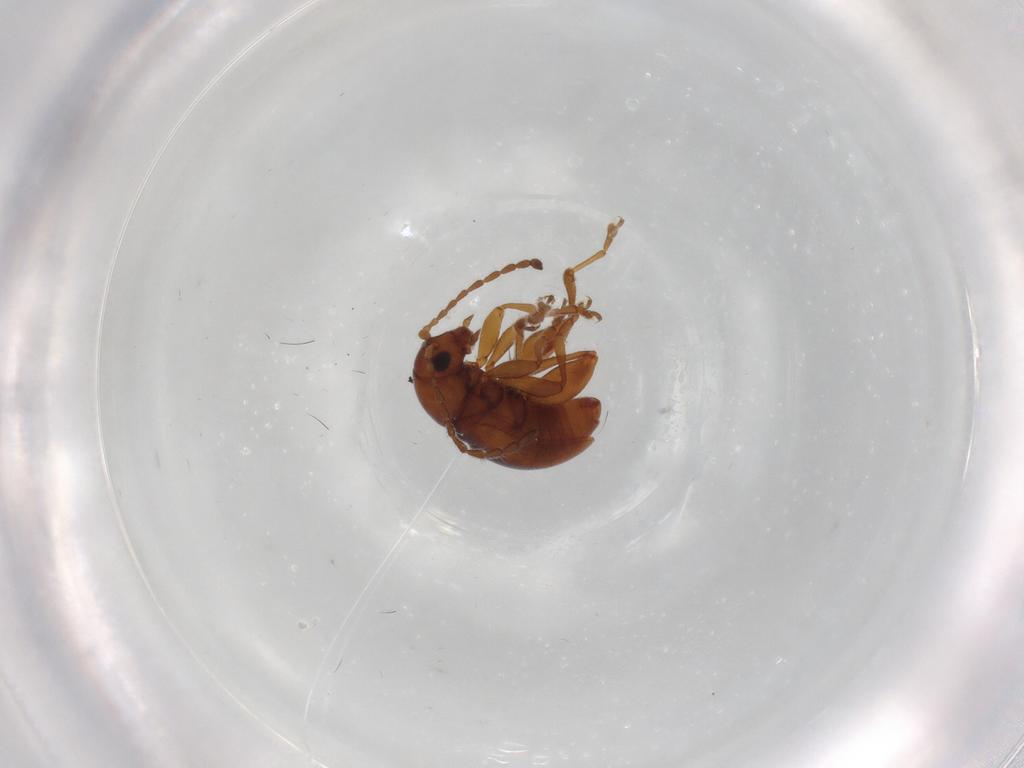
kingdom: Animalia
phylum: Arthropoda
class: Insecta
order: Coleoptera
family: Chrysomelidae
